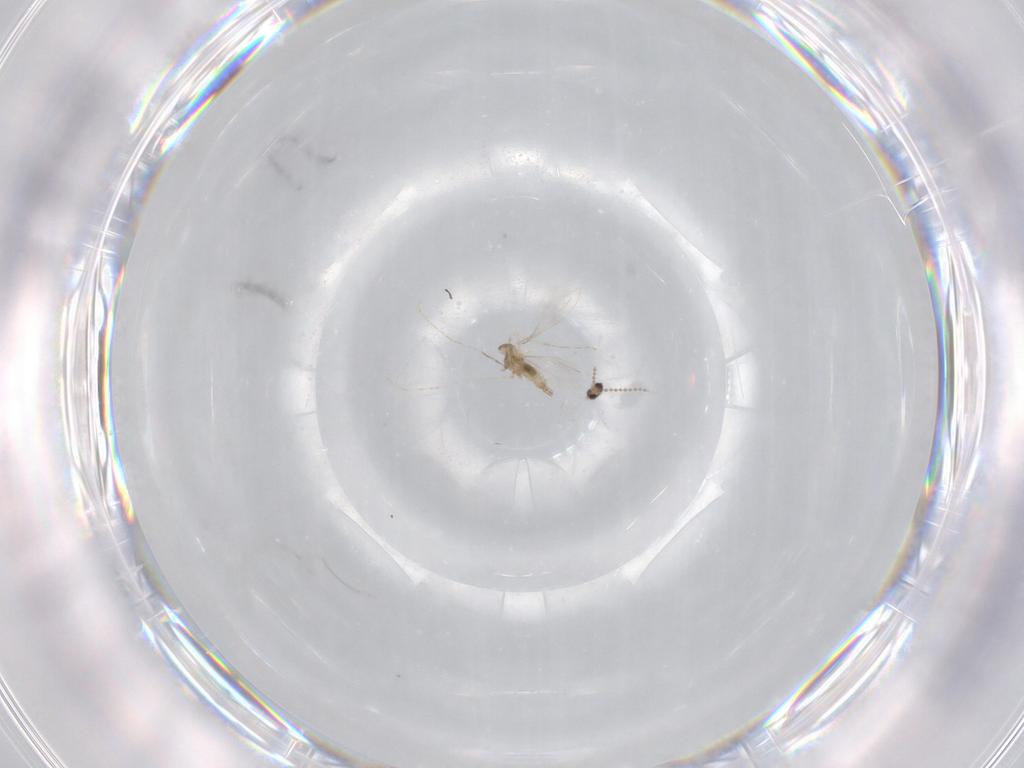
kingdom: Animalia
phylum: Arthropoda
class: Insecta
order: Diptera
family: Cecidomyiidae
